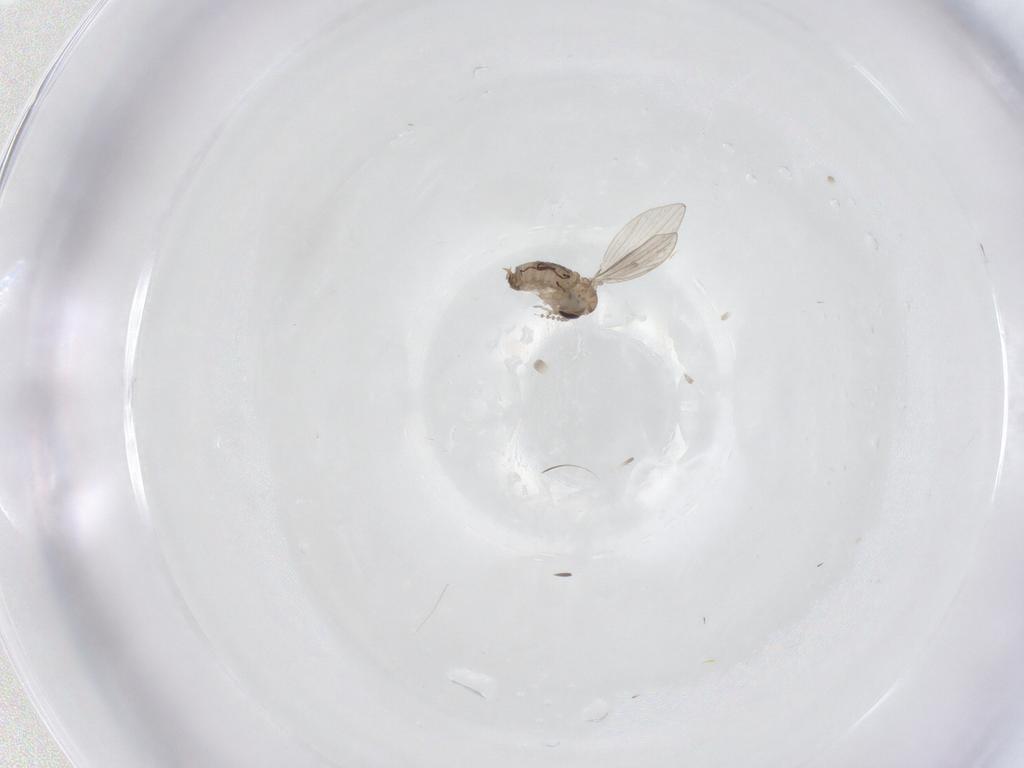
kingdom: Animalia
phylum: Arthropoda
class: Insecta
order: Diptera
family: Psychodidae
